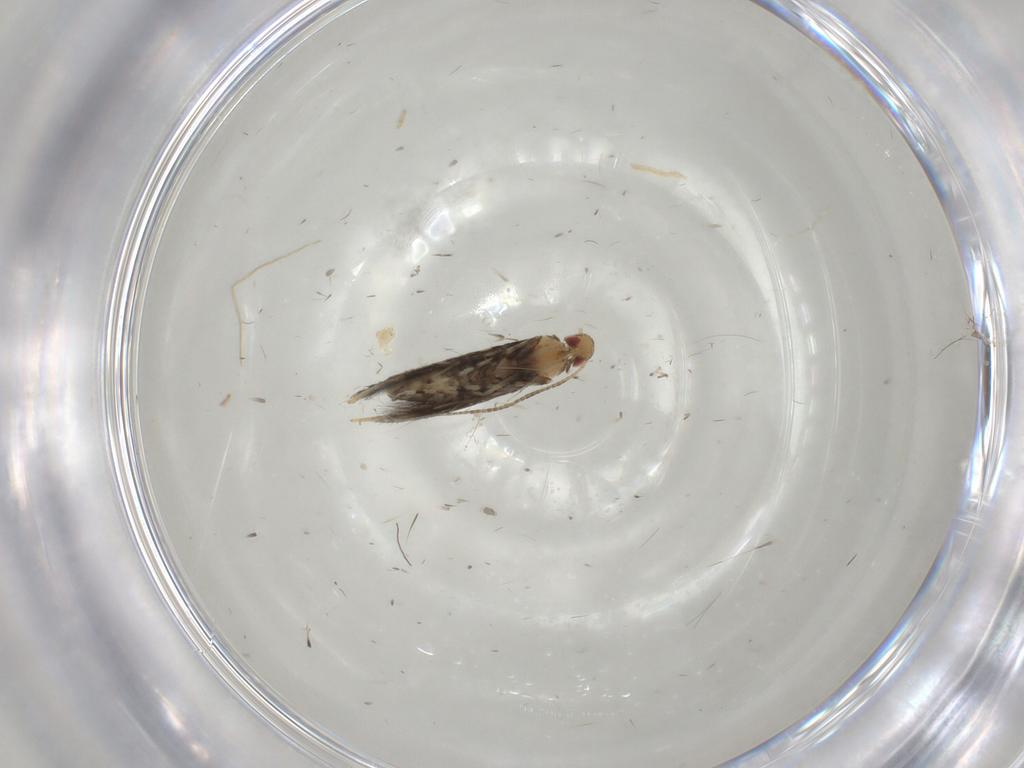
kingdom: Animalia
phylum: Arthropoda
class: Insecta
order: Lepidoptera
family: Gracillariidae
